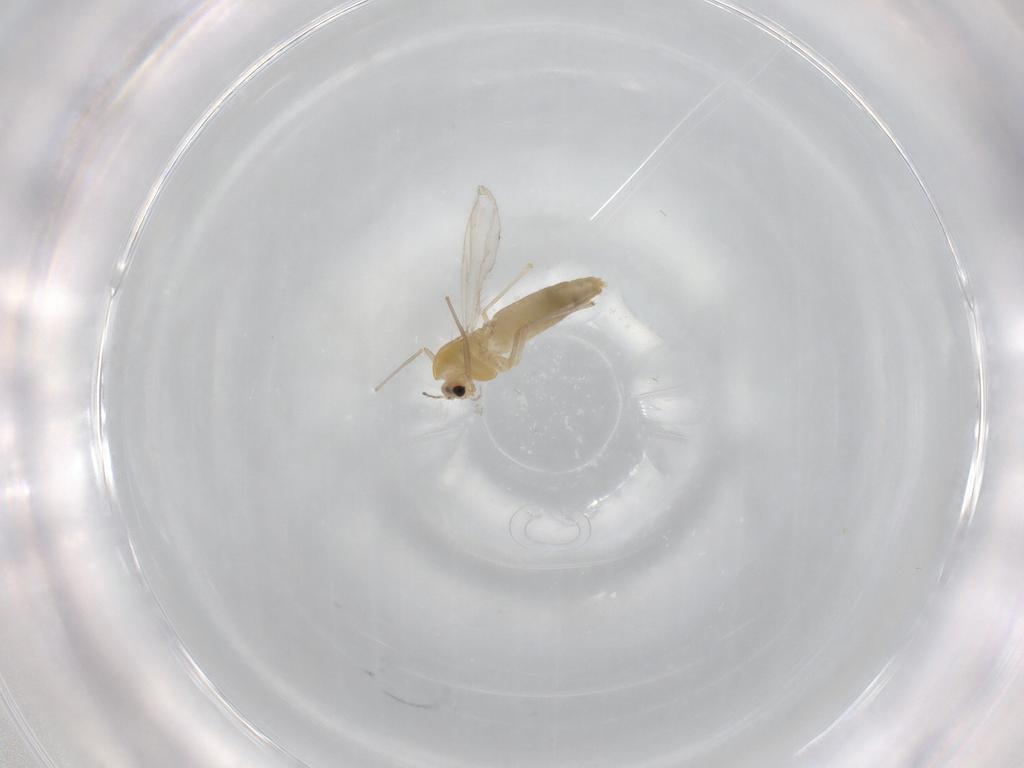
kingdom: Animalia
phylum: Arthropoda
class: Insecta
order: Diptera
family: Chironomidae
